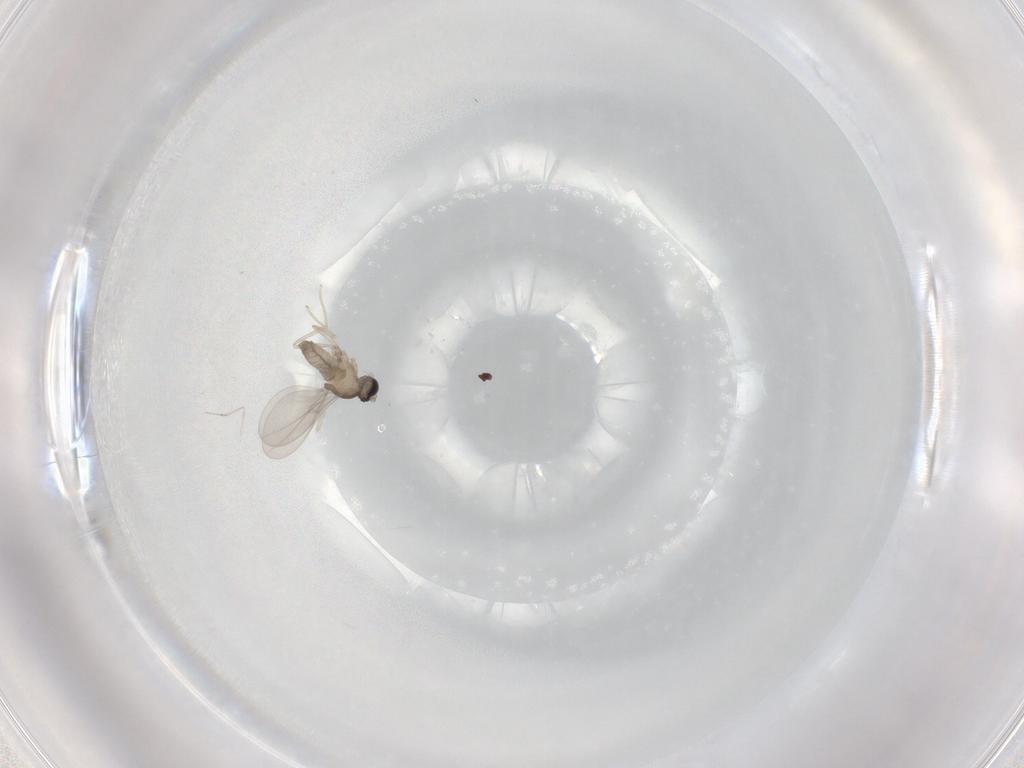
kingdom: Animalia
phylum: Arthropoda
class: Insecta
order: Diptera
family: Cecidomyiidae
